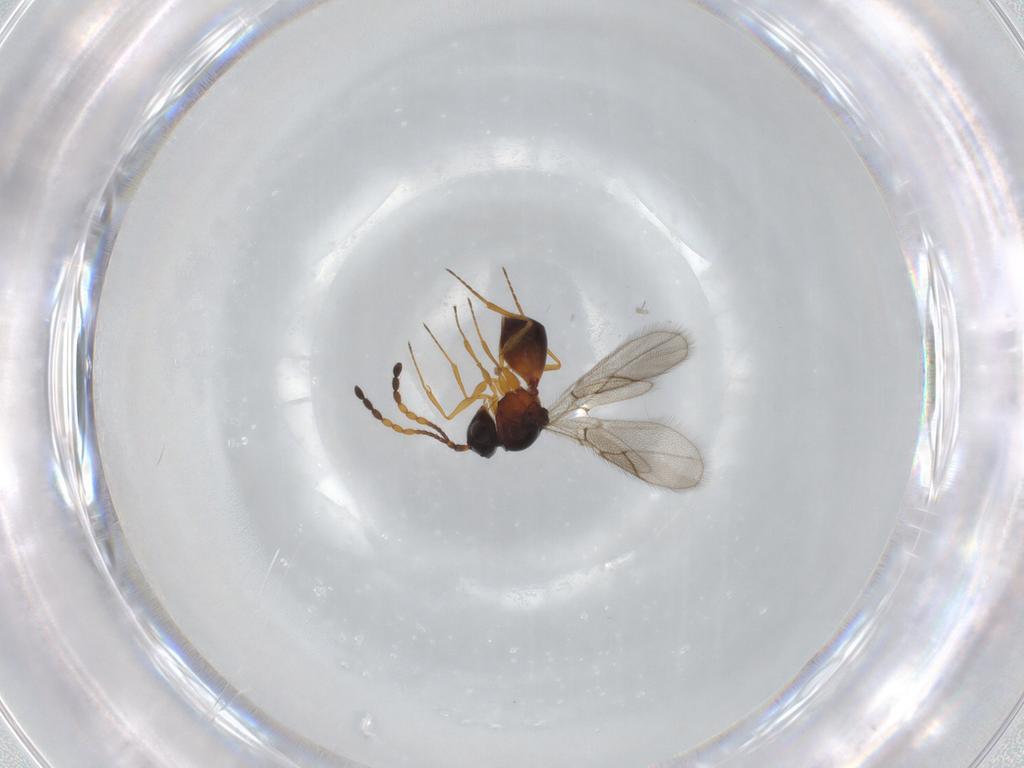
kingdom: Animalia
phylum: Arthropoda
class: Insecta
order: Hymenoptera
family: Figitidae
